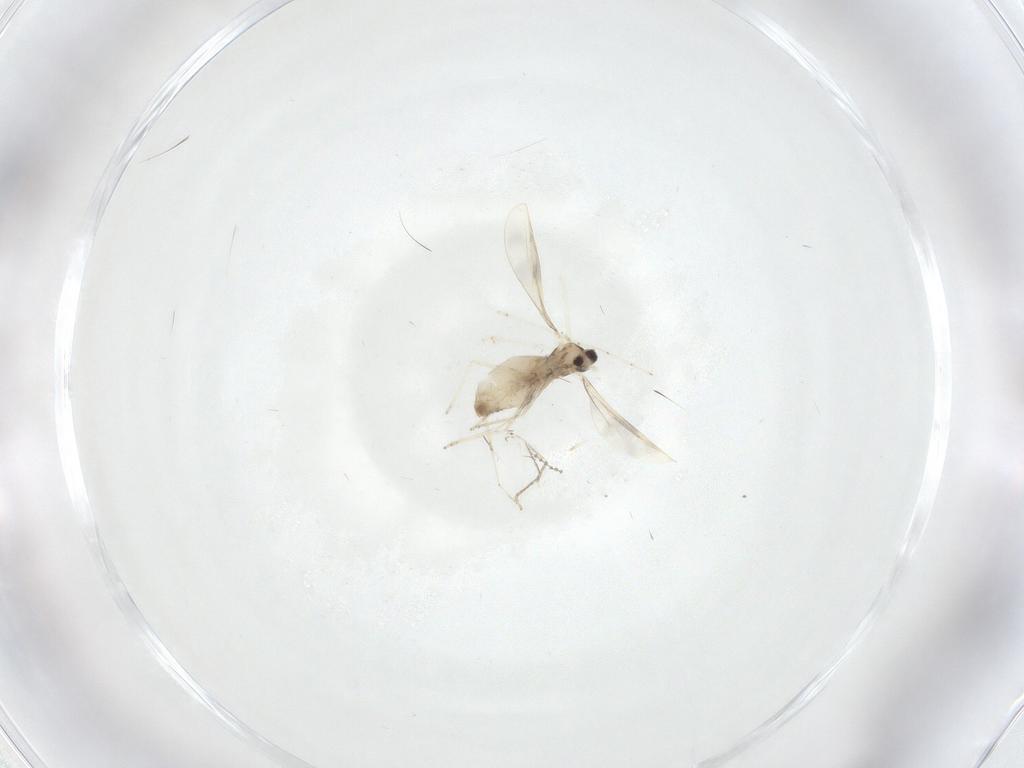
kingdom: Animalia
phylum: Arthropoda
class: Insecta
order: Diptera
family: Cecidomyiidae
